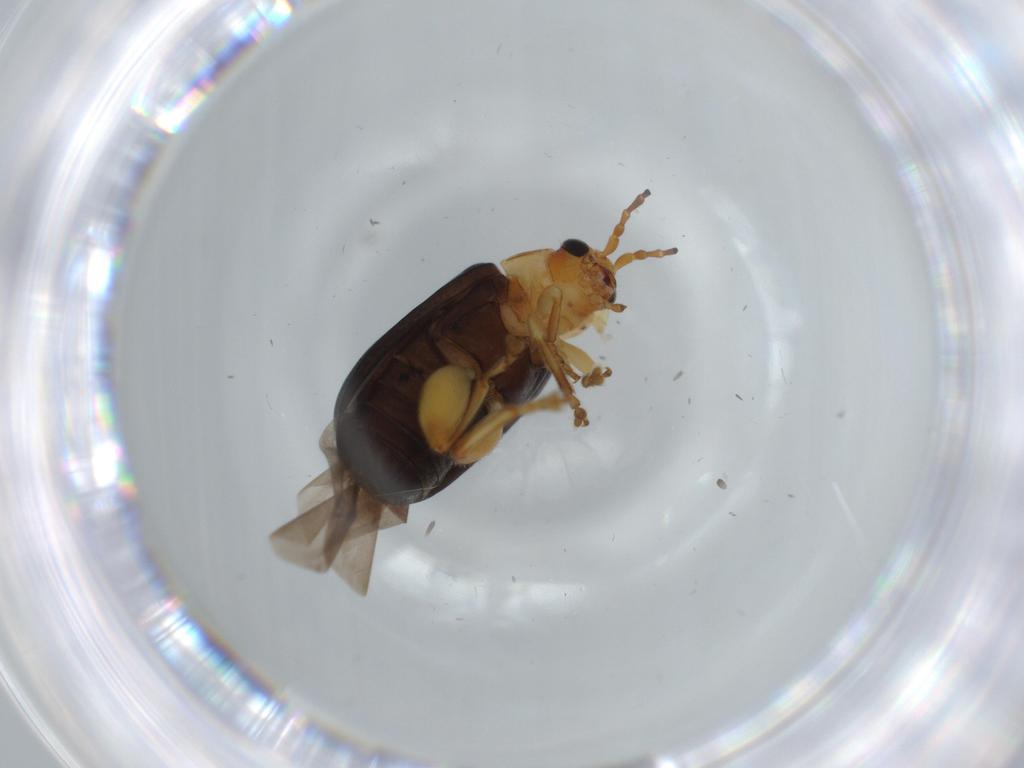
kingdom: Animalia
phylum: Arthropoda
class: Insecta
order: Coleoptera
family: Chrysomelidae
